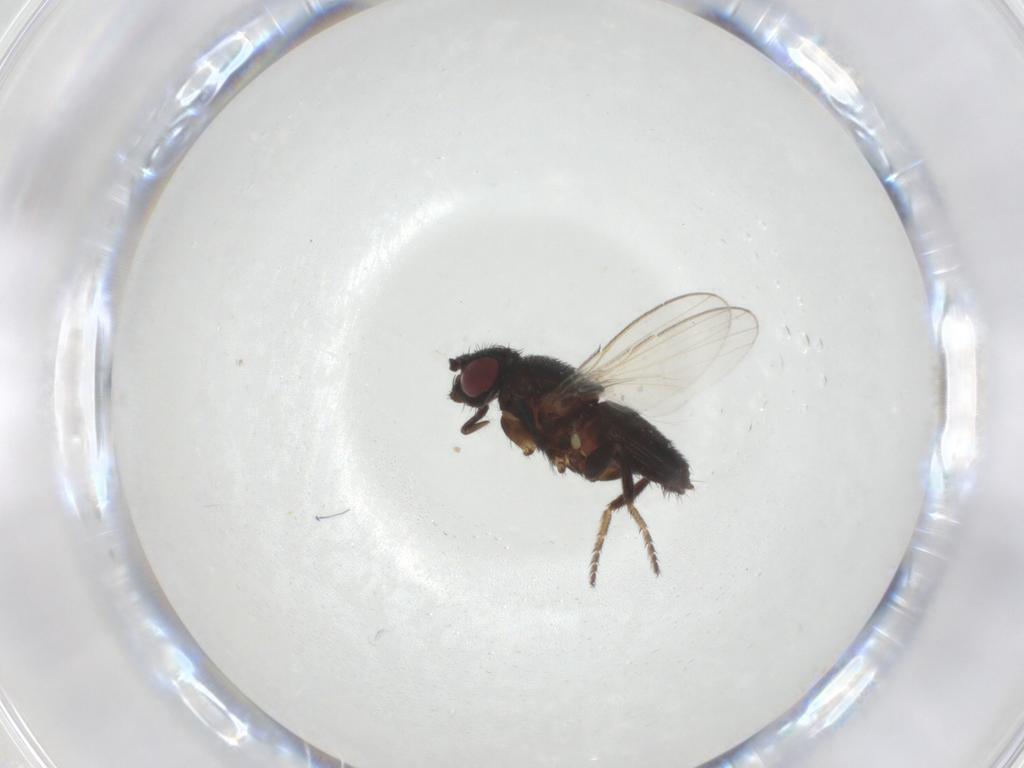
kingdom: Animalia
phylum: Arthropoda
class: Insecta
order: Diptera
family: Milichiidae
